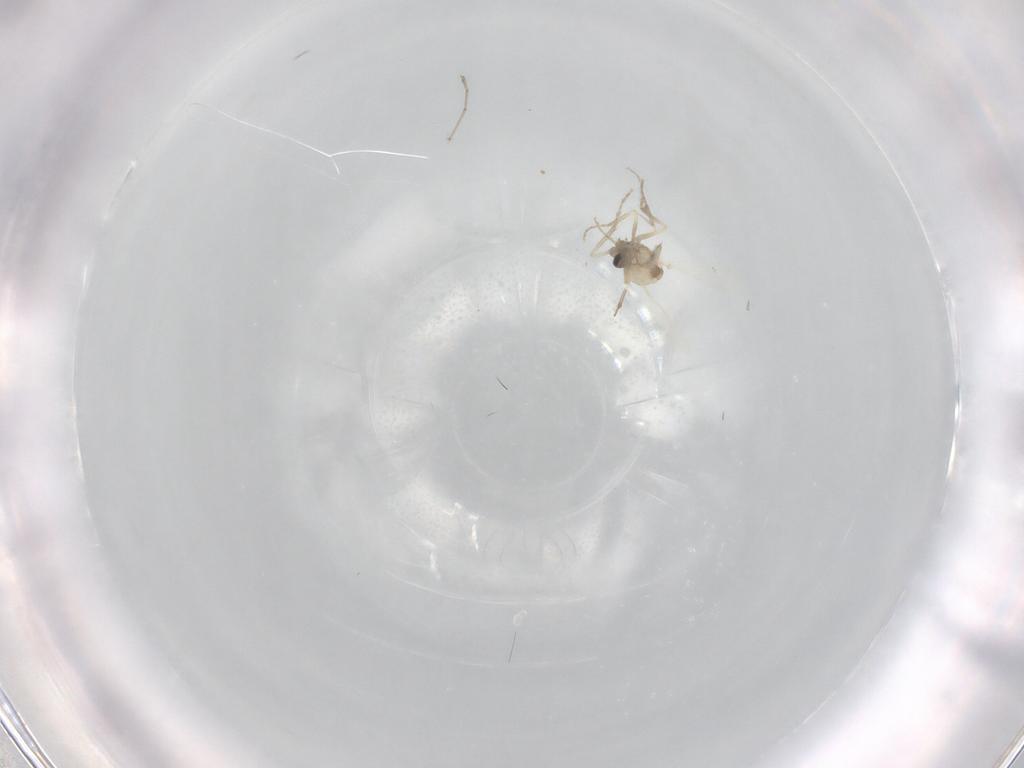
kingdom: Animalia
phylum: Arthropoda
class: Insecta
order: Diptera
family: Ceratopogonidae
